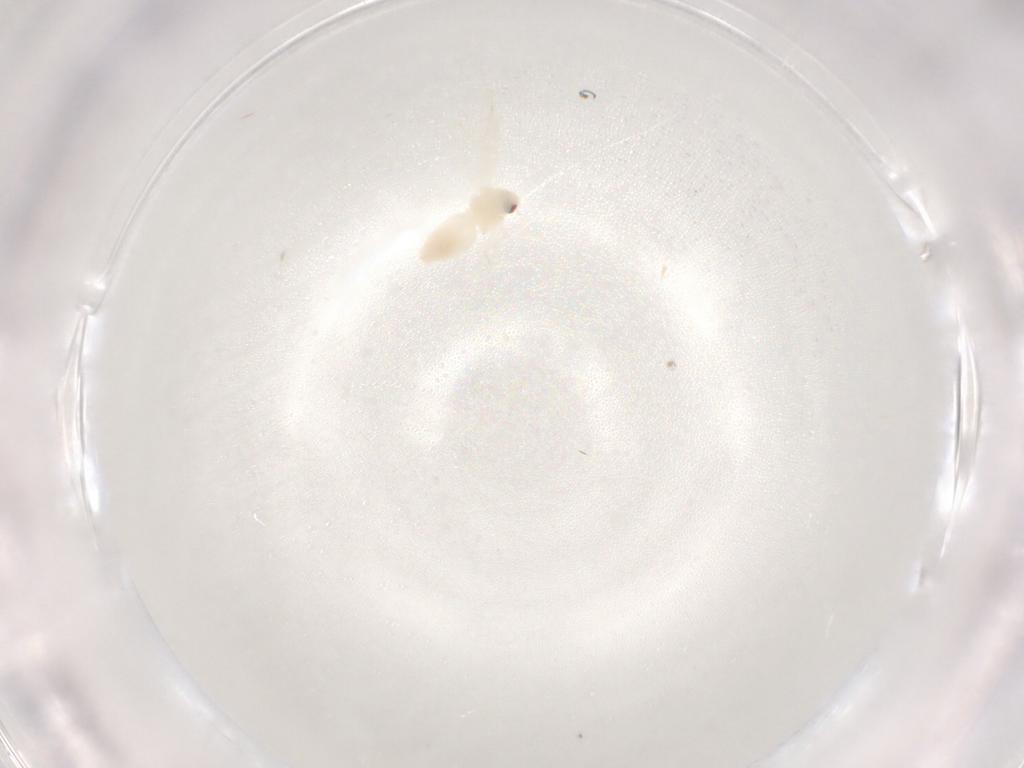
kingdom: Animalia
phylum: Arthropoda
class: Insecta
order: Hemiptera
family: Aleyrodidae
